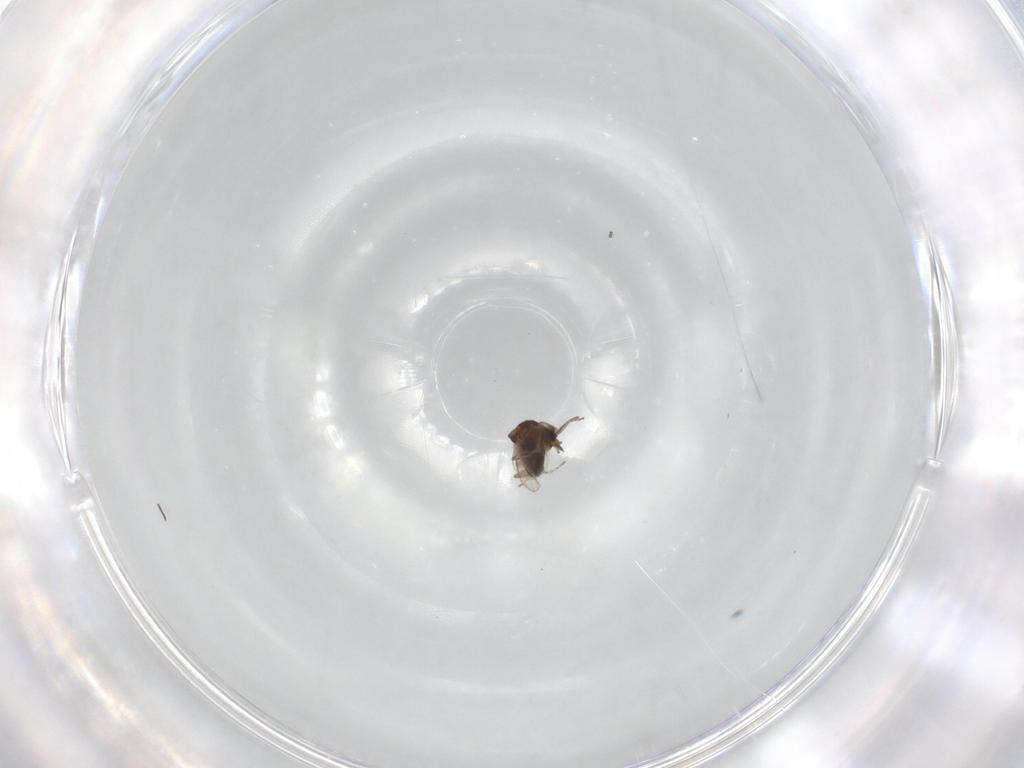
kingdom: Animalia
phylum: Arthropoda
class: Insecta
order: Diptera
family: Ceratopogonidae
